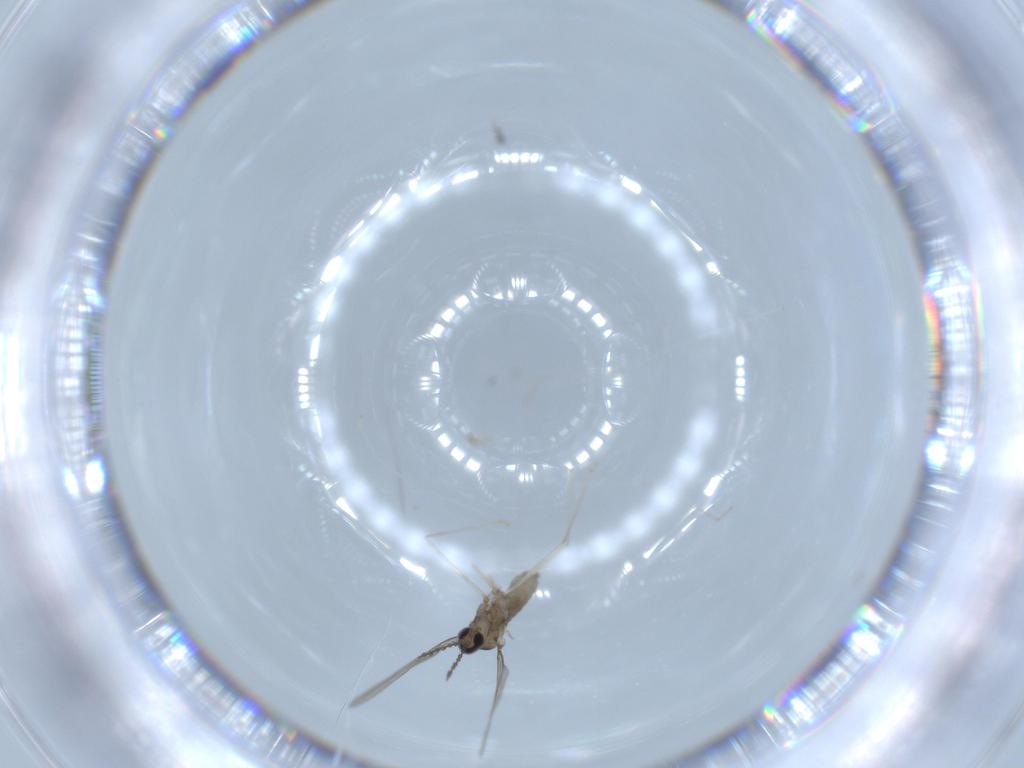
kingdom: Animalia
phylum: Arthropoda
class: Insecta
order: Diptera
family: Cecidomyiidae
